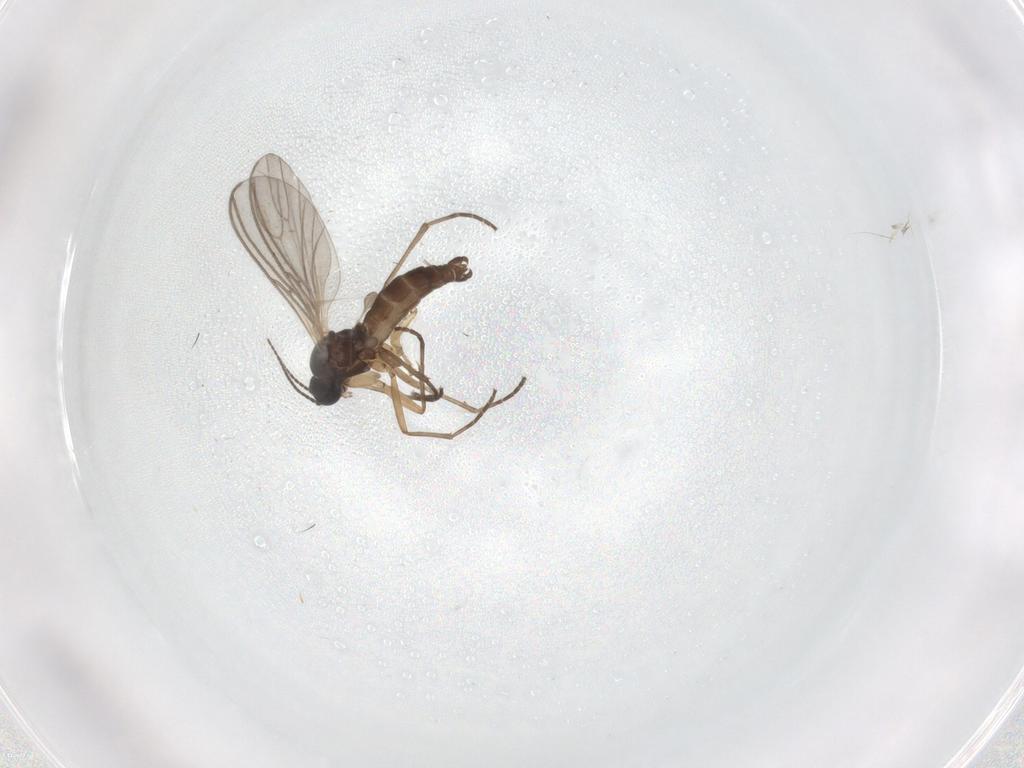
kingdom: Animalia
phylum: Arthropoda
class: Insecta
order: Diptera
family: Sciaridae
